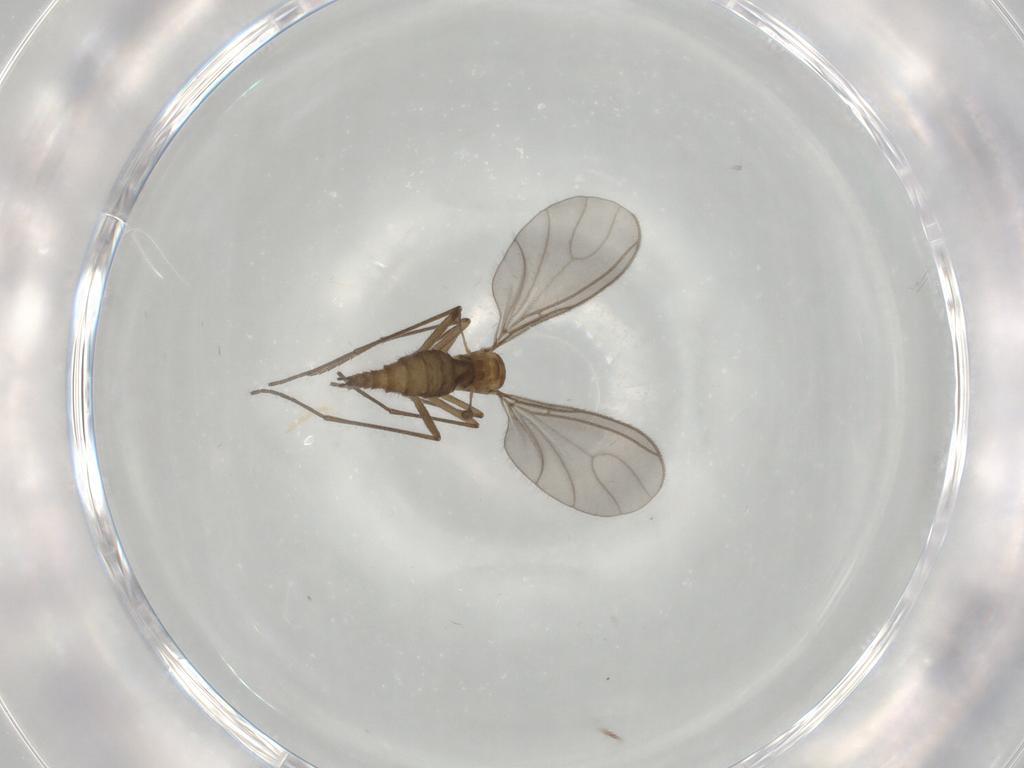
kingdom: Animalia
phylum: Arthropoda
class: Insecta
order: Diptera
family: Sciaridae
